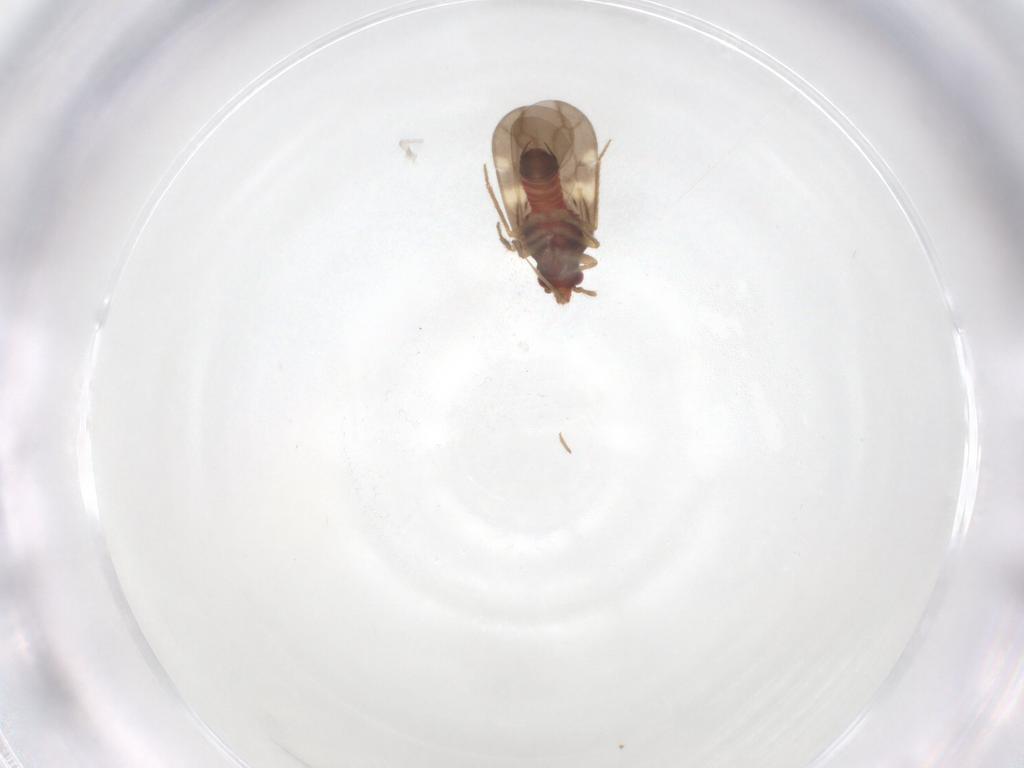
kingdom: Animalia
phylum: Arthropoda
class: Insecta
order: Hemiptera
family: Ceratocombidae
